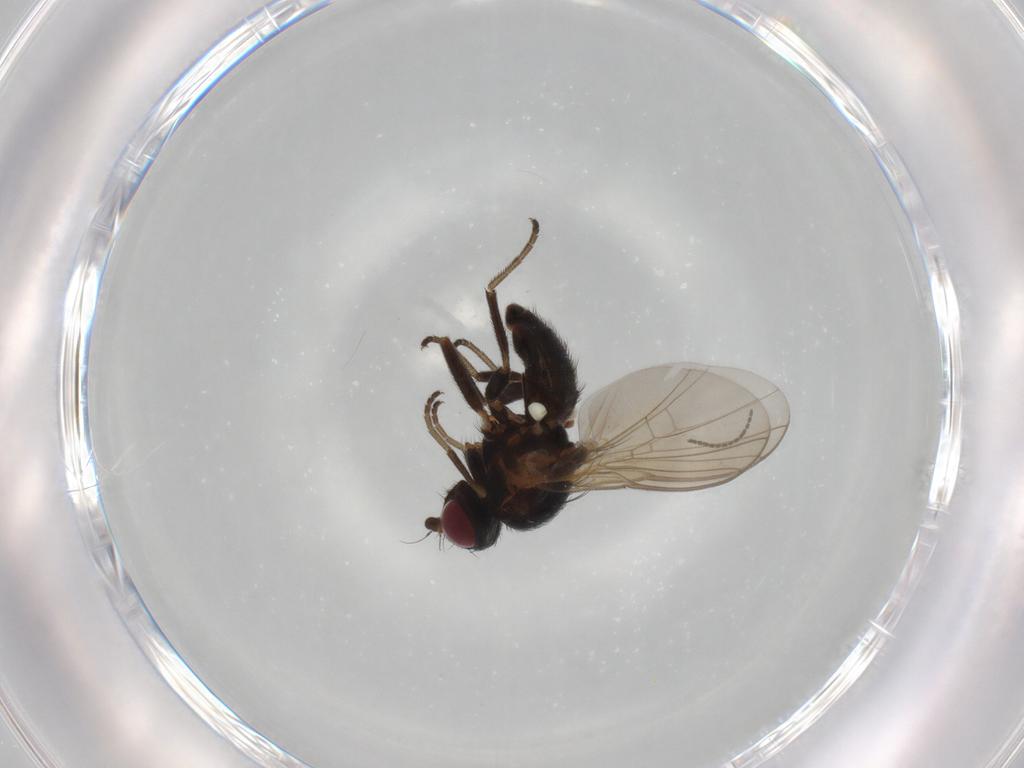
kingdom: Animalia
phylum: Arthropoda
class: Insecta
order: Diptera
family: Agromyzidae
